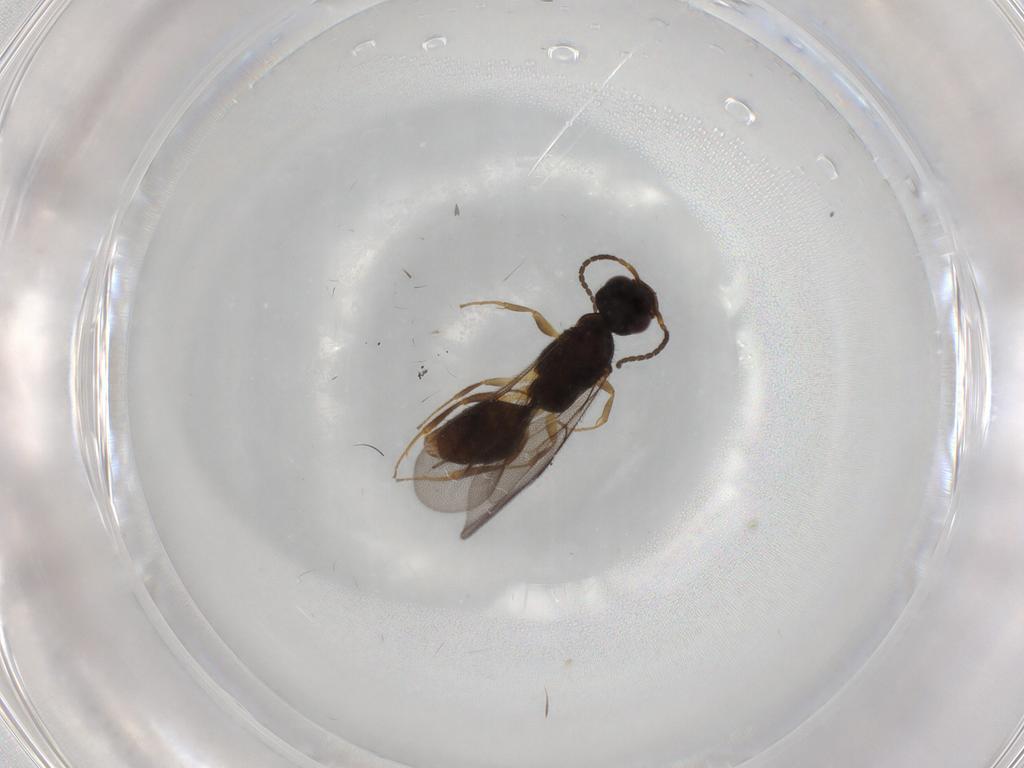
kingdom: Animalia
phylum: Arthropoda
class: Insecta
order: Hymenoptera
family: Bethylidae
